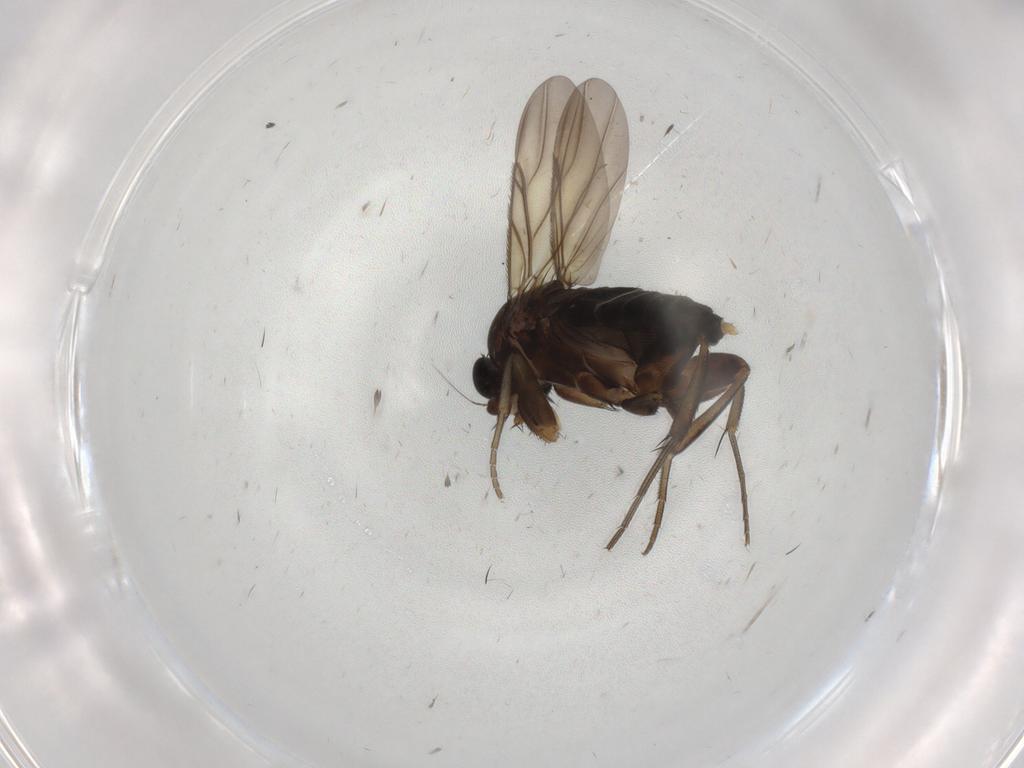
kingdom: Animalia
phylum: Arthropoda
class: Insecta
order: Diptera
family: Phoridae
